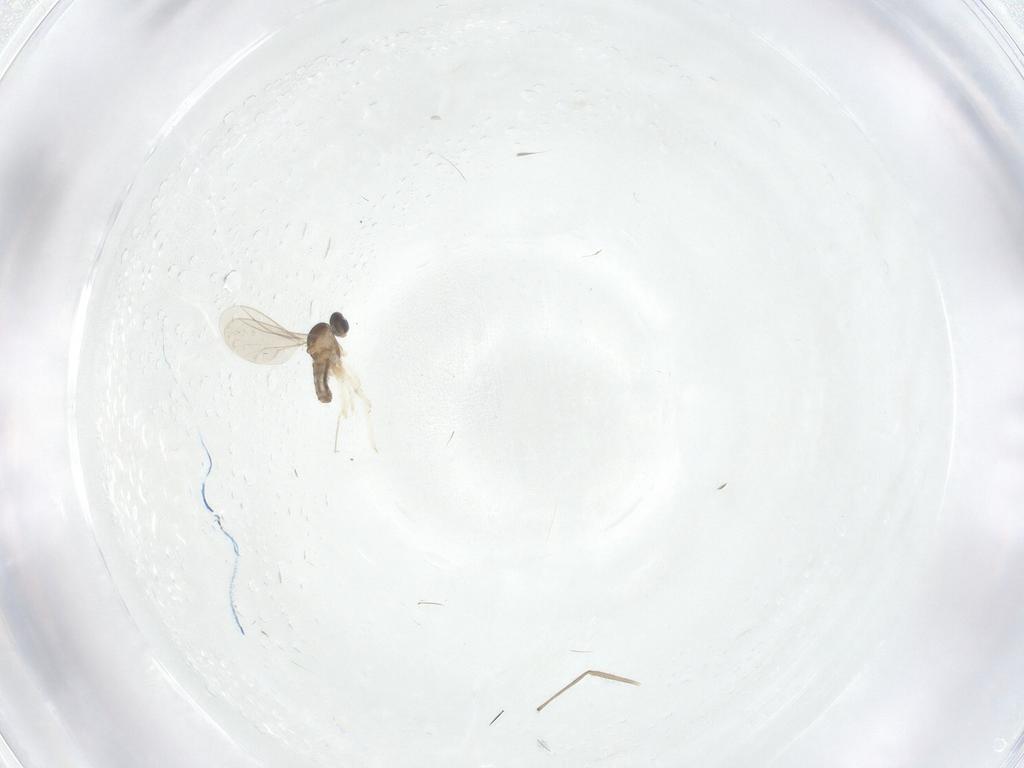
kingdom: Animalia
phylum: Arthropoda
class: Insecta
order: Diptera
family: Cecidomyiidae
